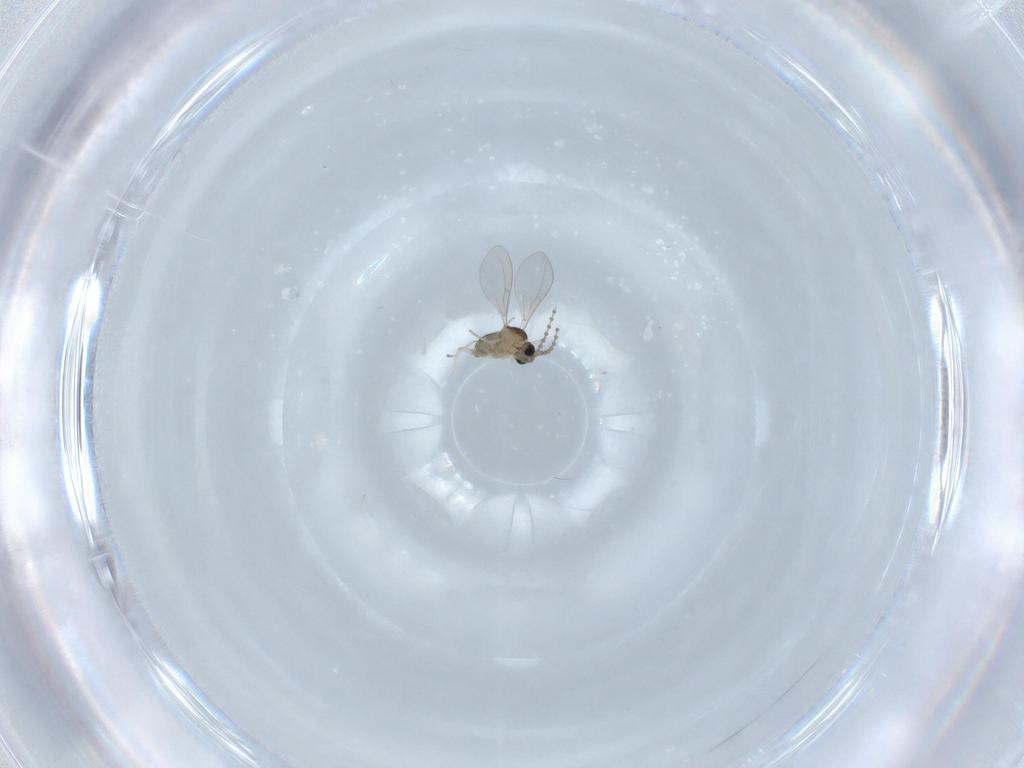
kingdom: Animalia
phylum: Arthropoda
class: Insecta
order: Diptera
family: Cecidomyiidae
